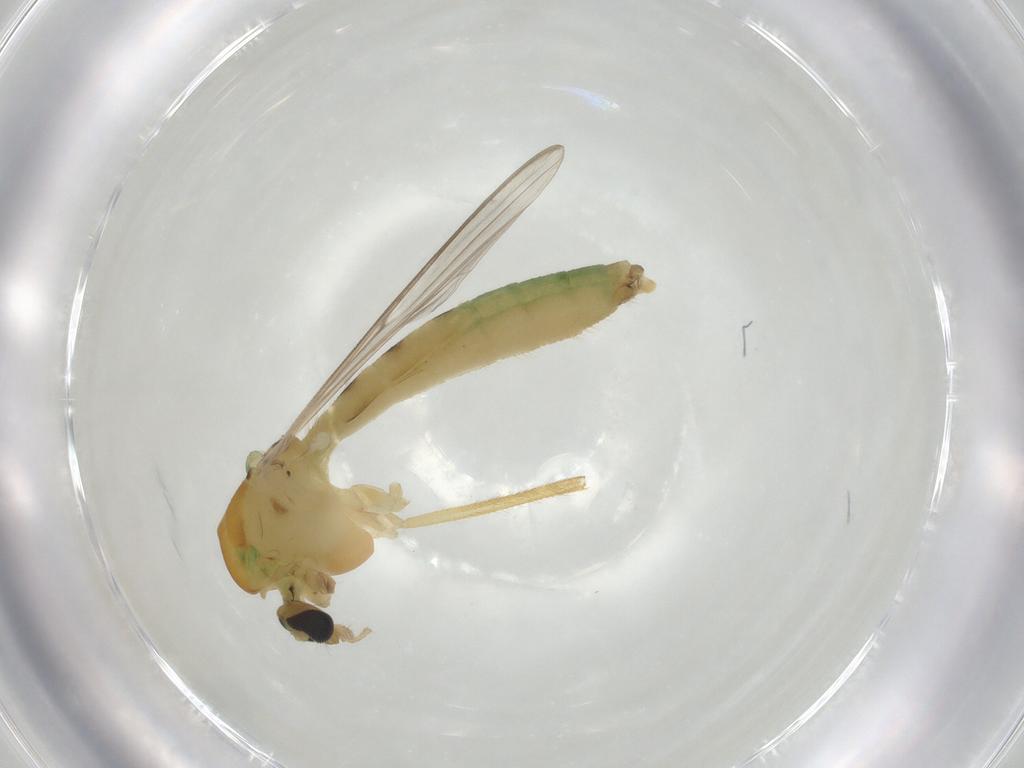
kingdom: Animalia
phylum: Arthropoda
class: Insecta
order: Diptera
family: Chironomidae
